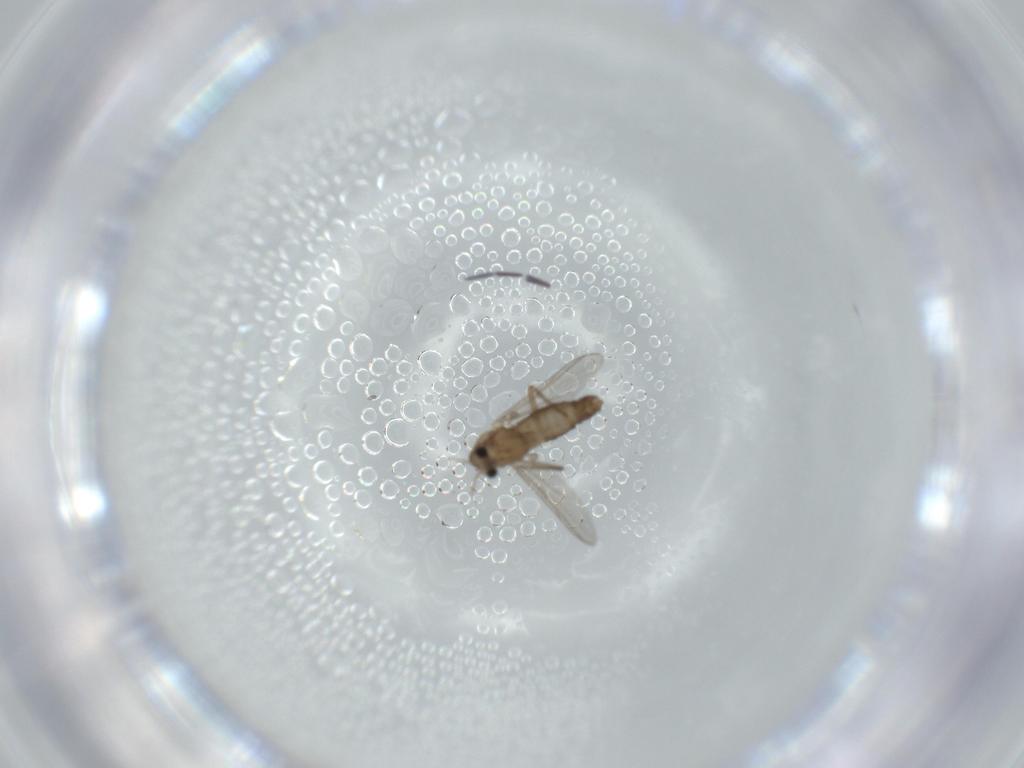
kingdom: Animalia
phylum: Arthropoda
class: Insecta
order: Diptera
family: Chironomidae
